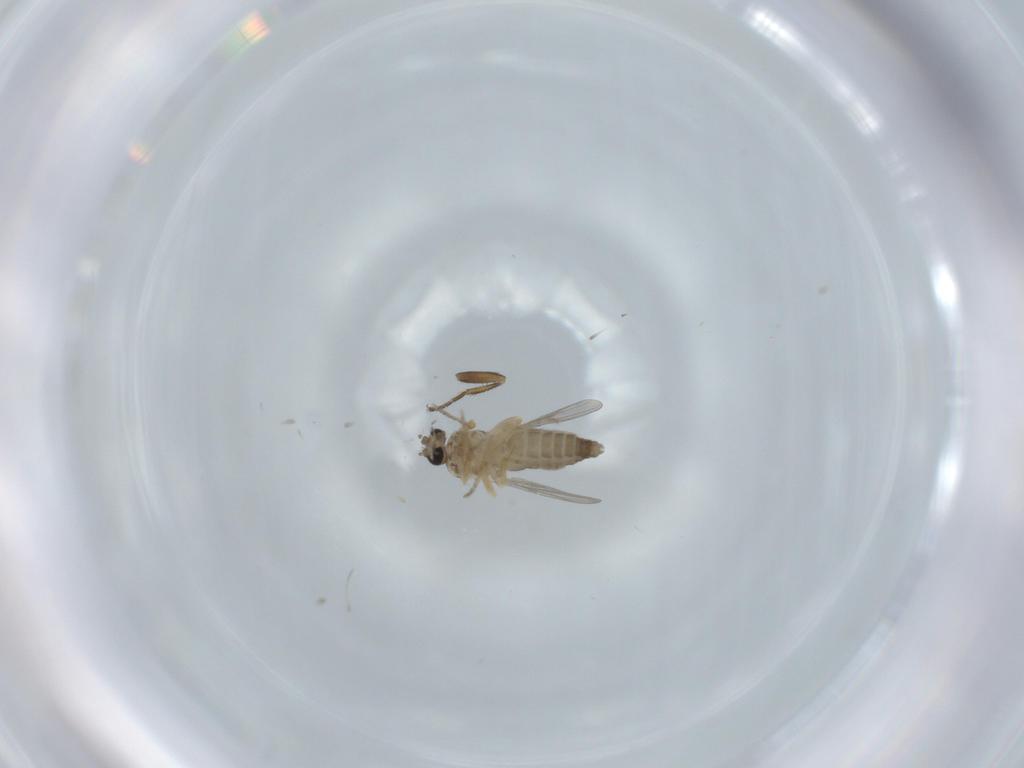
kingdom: Animalia
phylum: Arthropoda
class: Insecta
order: Diptera
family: Ceratopogonidae
